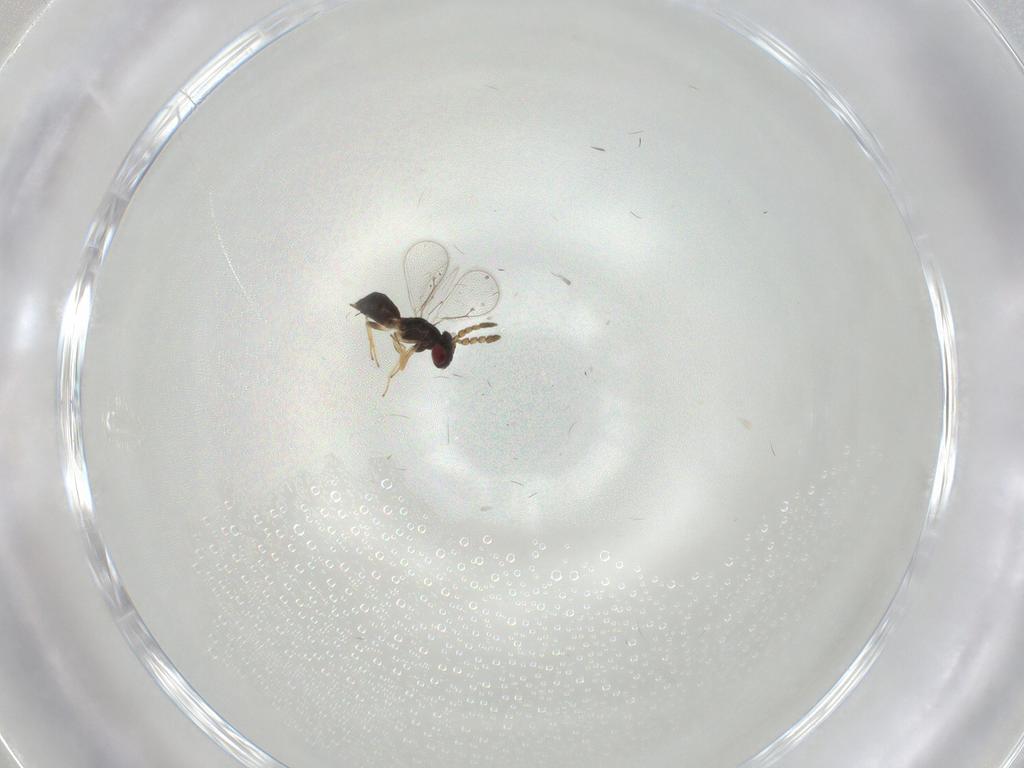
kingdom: Animalia
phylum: Arthropoda
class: Insecta
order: Hymenoptera
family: Eulophidae
